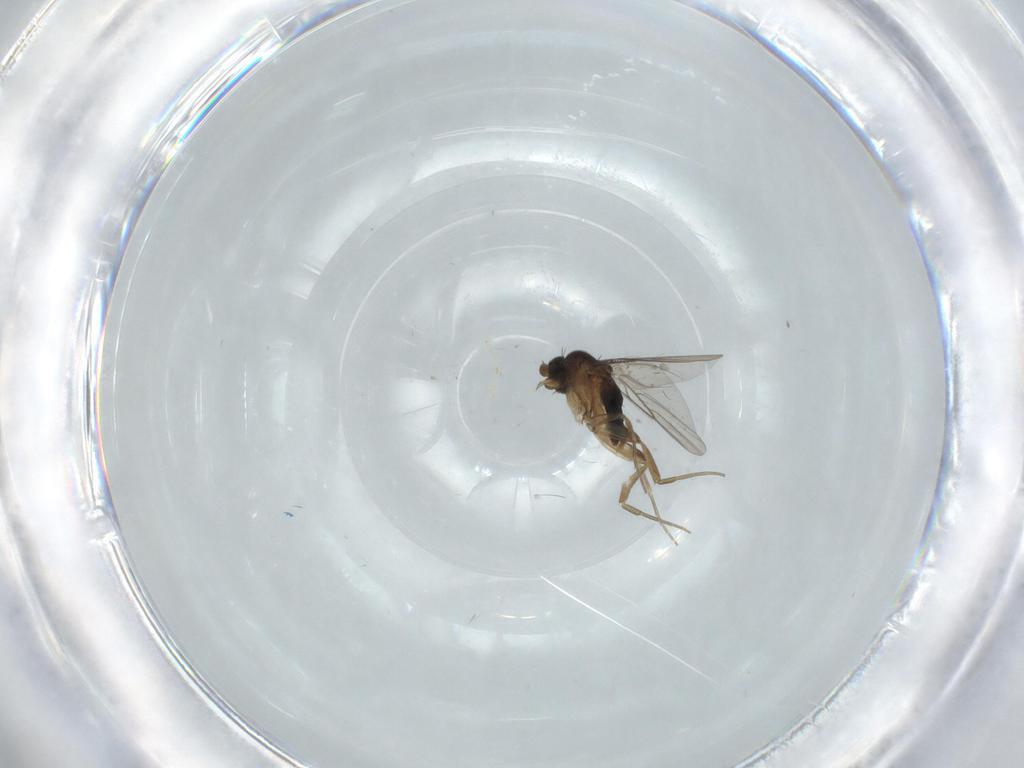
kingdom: Animalia
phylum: Arthropoda
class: Insecta
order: Diptera
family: Phoridae
